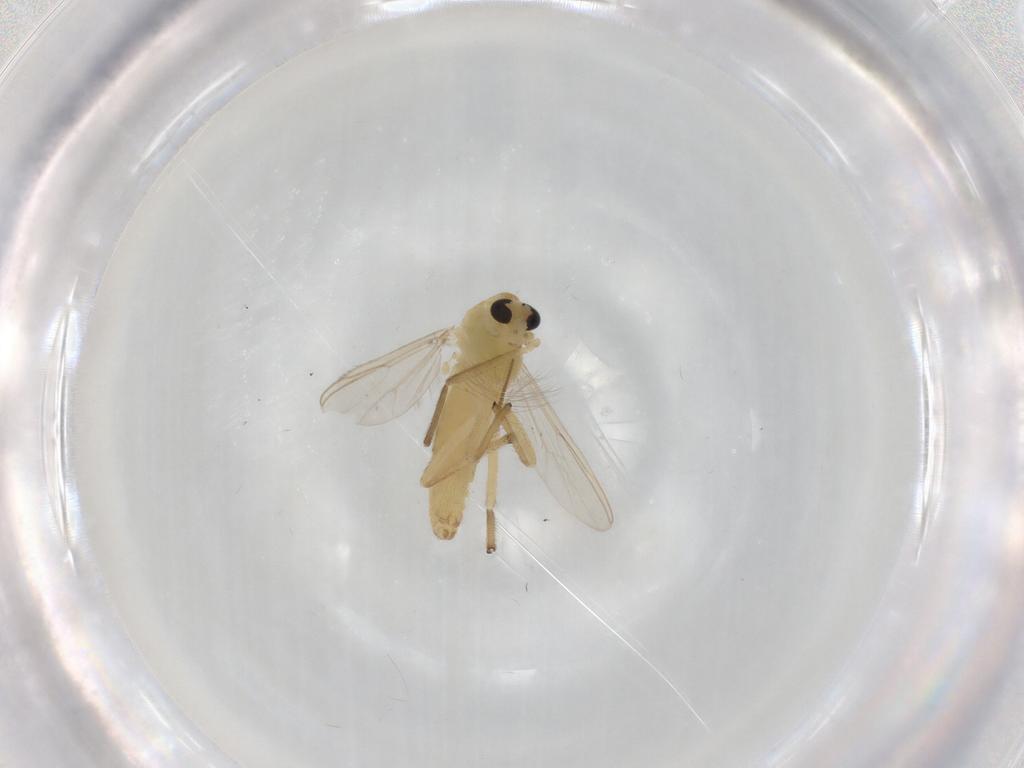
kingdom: Animalia
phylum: Arthropoda
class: Insecta
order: Diptera
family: Chironomidae
